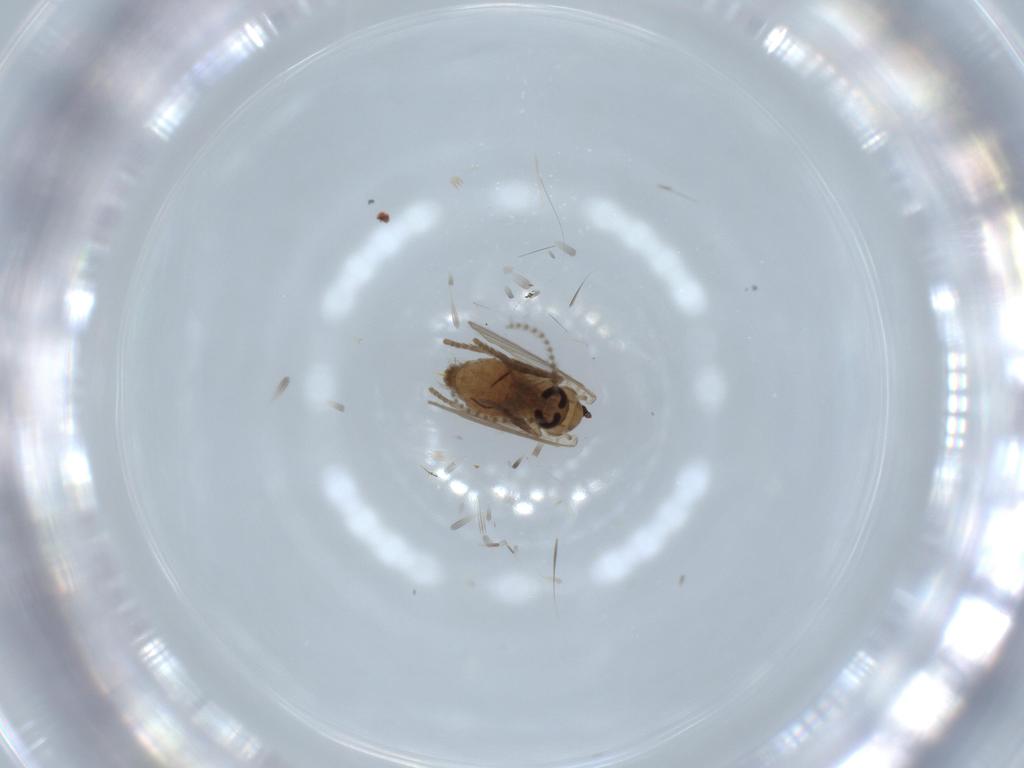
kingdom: Animalia
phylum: Arthropoda
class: Insecta
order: Diptera
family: Psychodidae
